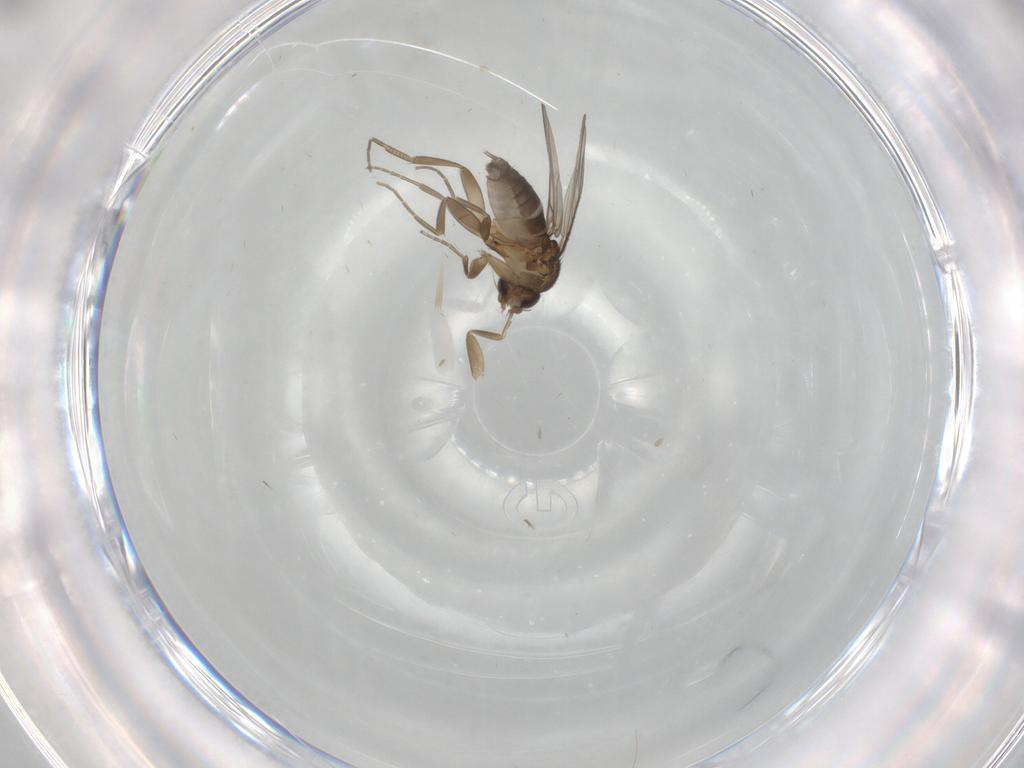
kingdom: Animalia
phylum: Arthropoda
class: Insecta
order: Diptera
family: Phoridae
